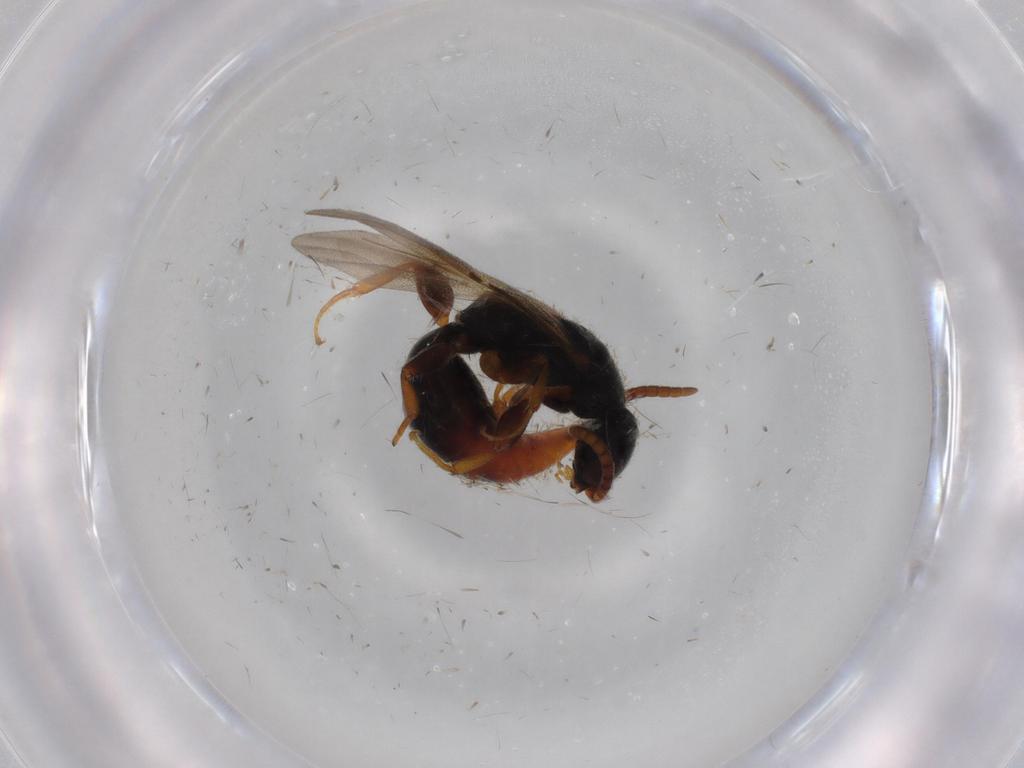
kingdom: Animalia
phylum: Arthropoda
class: Insecta
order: Hymenoptera
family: Bethylidae
